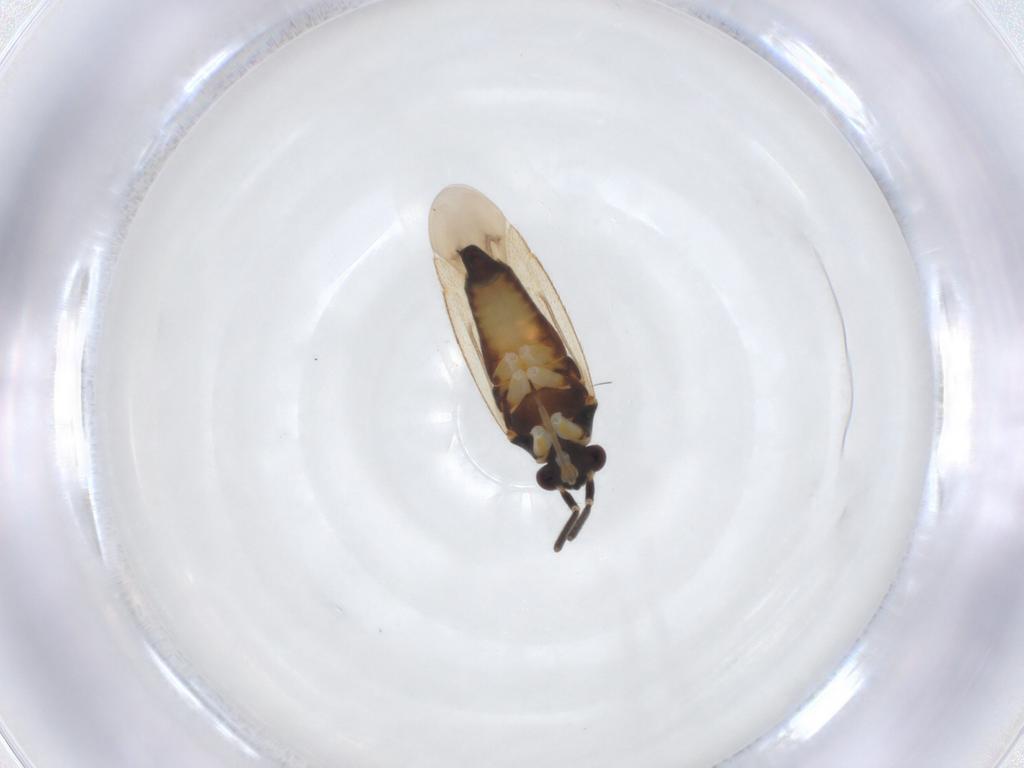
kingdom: Animalia
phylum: Arthropoda
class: Insecta
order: Hemiptera
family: Miridae
